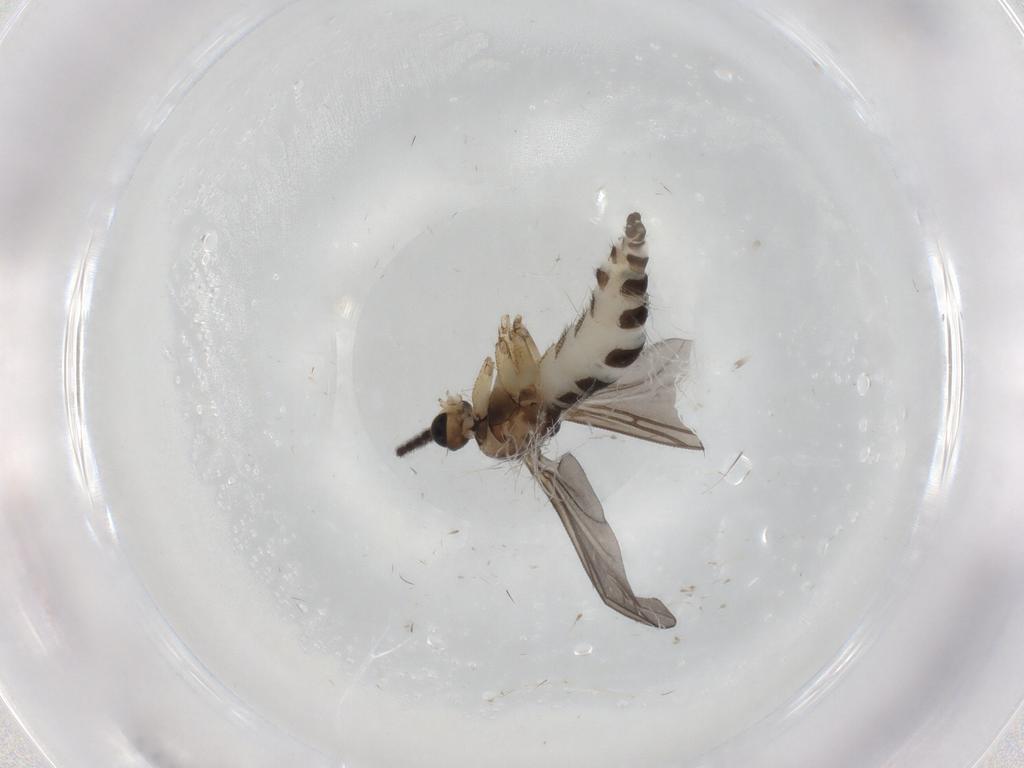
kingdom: Animalia
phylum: Arthropoda
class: Insecta
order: Diptera
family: Sciaridae
